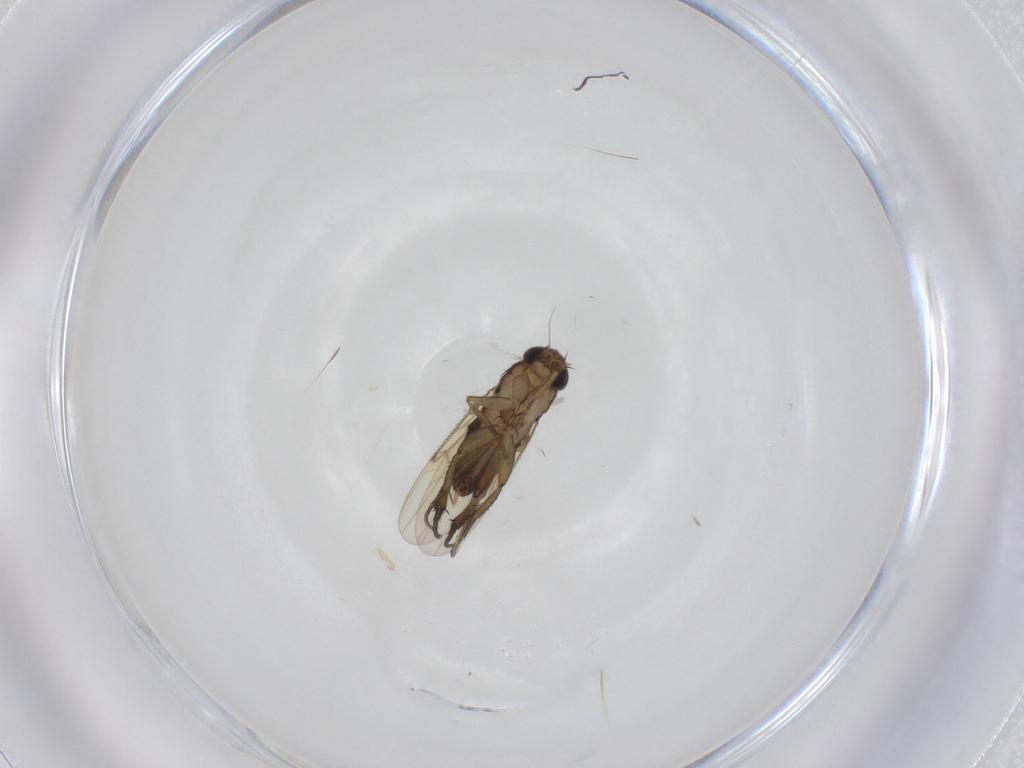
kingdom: Animalia
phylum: Arthropoda
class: Insecta
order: Diptera
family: Phoridae
